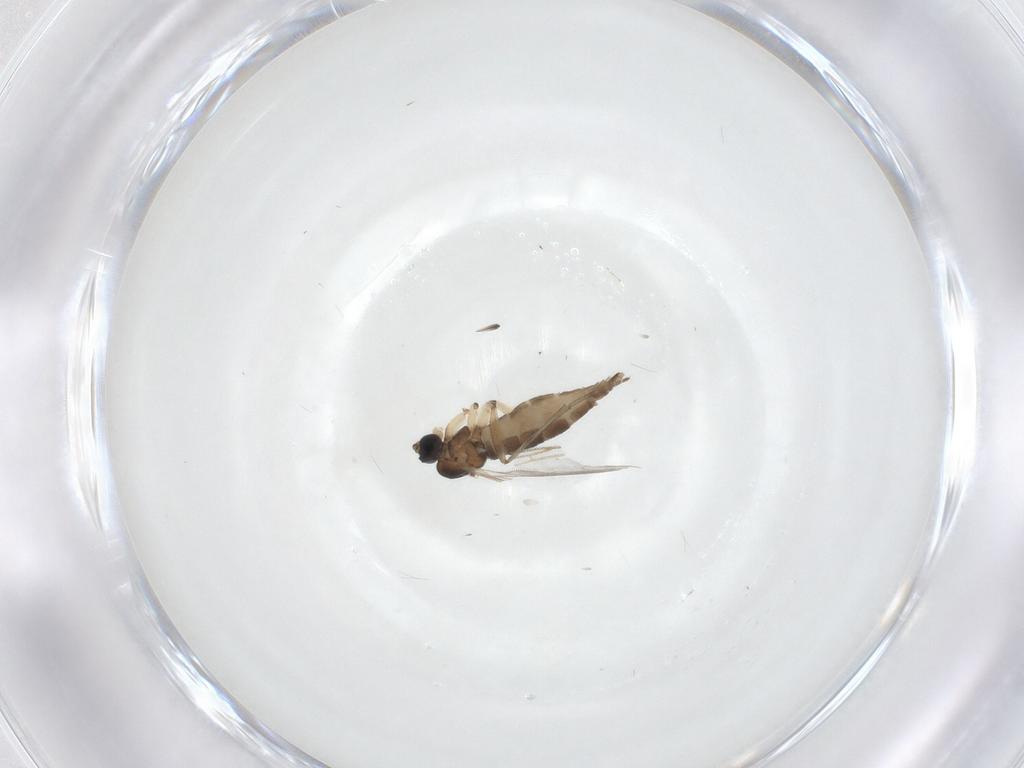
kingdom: Animalia
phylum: Arthropoda
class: Insecta
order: Diptera
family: Sciaridae
